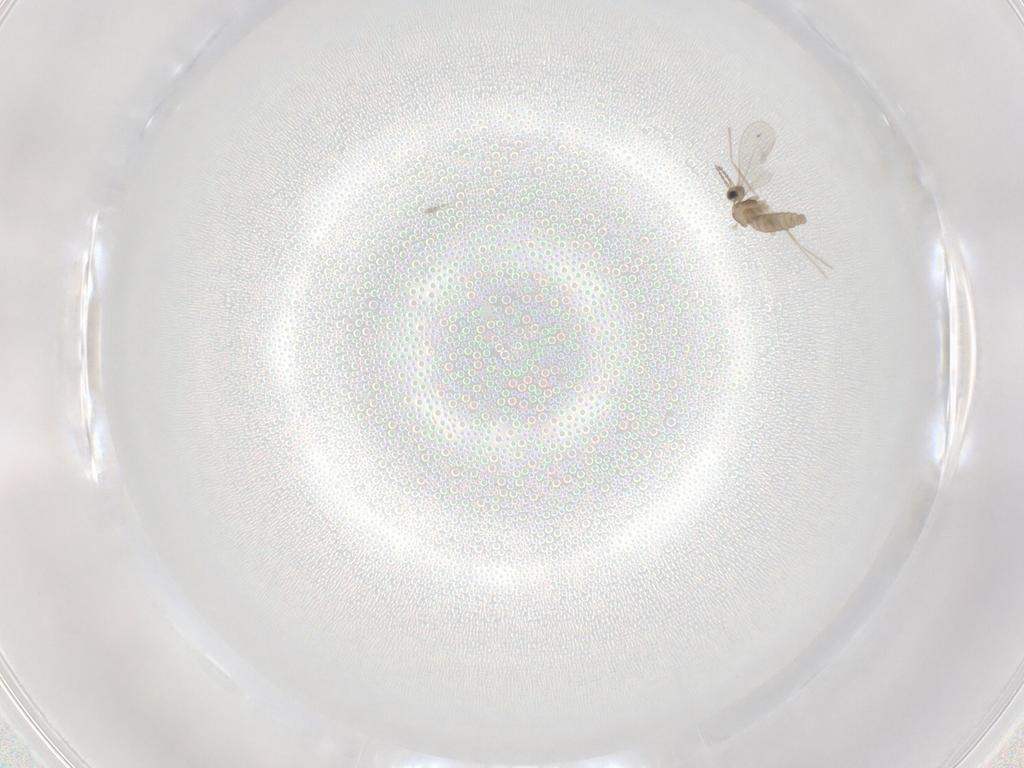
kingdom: Animalia
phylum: Arthropoda
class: Insecta
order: Diptera
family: Cecidomyiidae
